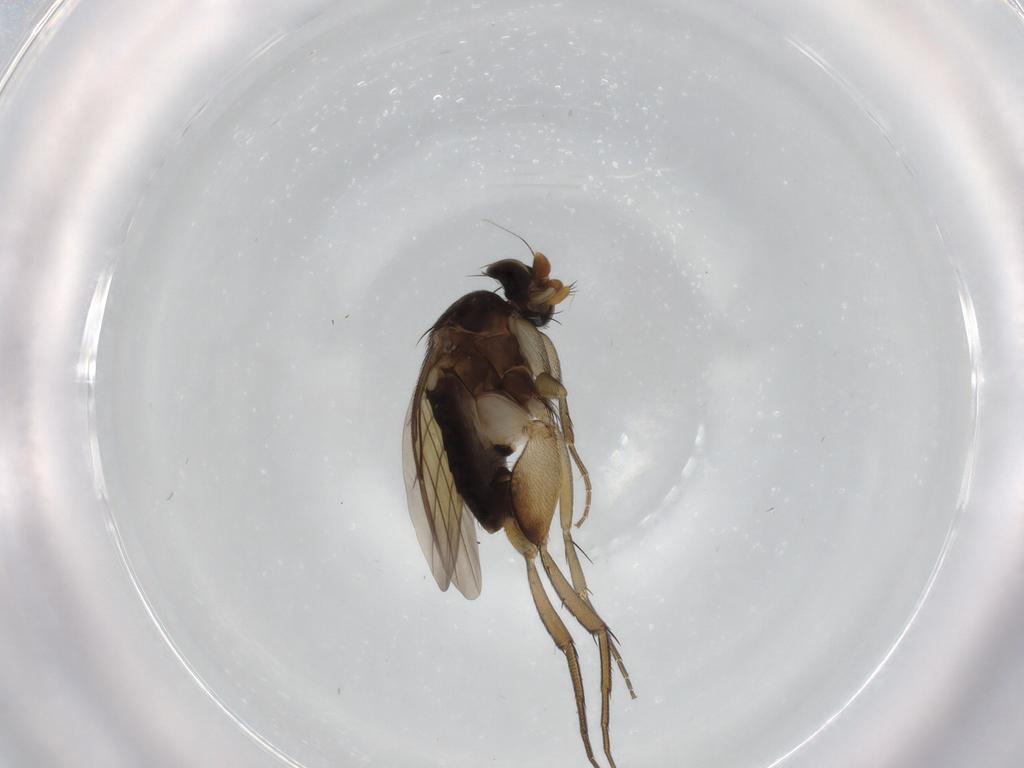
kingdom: Animalia
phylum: Arthropoda
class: Insecta
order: Diptera
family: Phoridae
